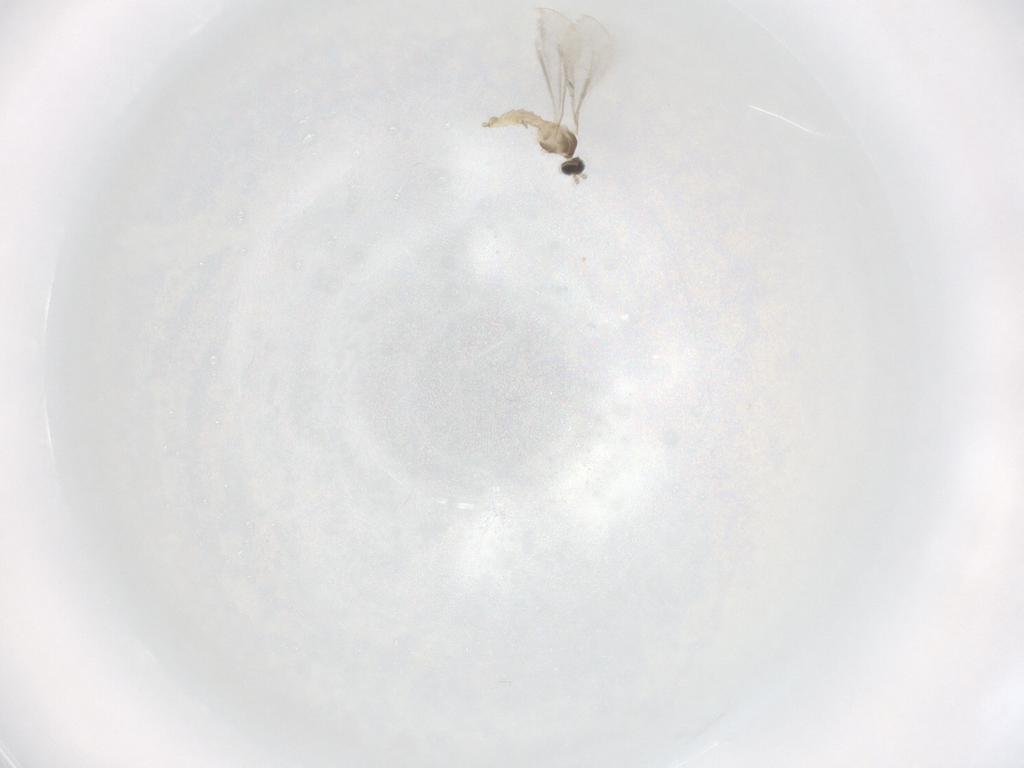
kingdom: Animalia
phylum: Arthropoda
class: Insecta
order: Diptera
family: Cecidomyiidae
